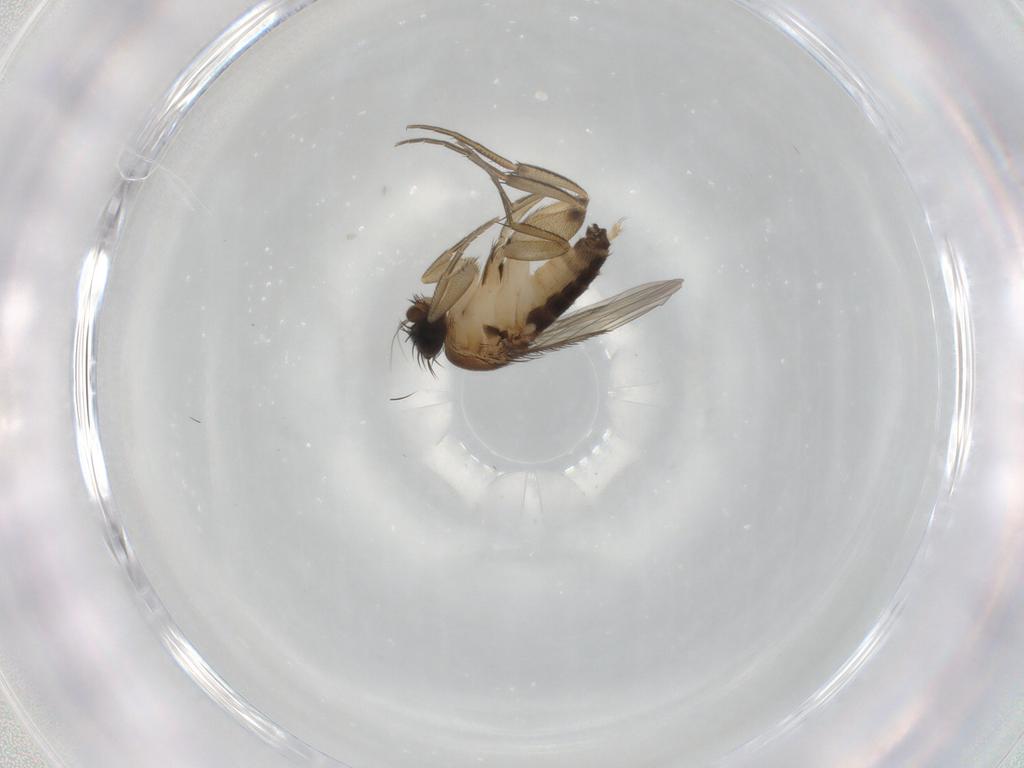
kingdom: Animalia
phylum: Arthropoda
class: Insecta
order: Diptera
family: Phoridae
